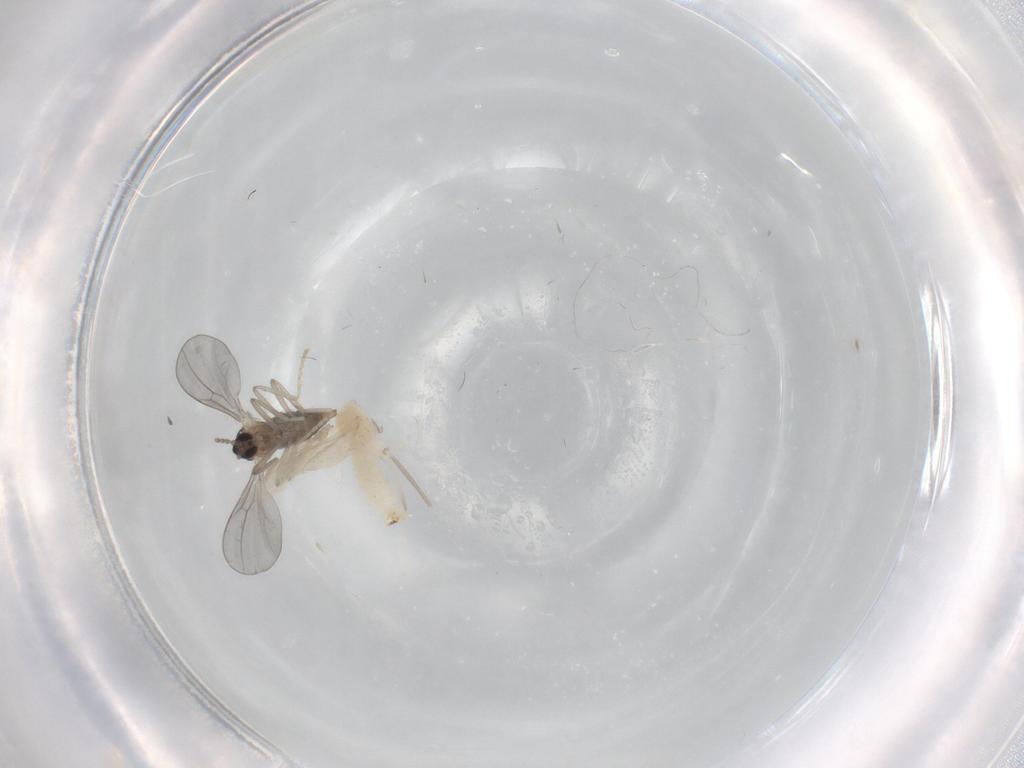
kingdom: Animalia
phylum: Arthropoda
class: Insecta
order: Diptera
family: Cecidomyiidae
